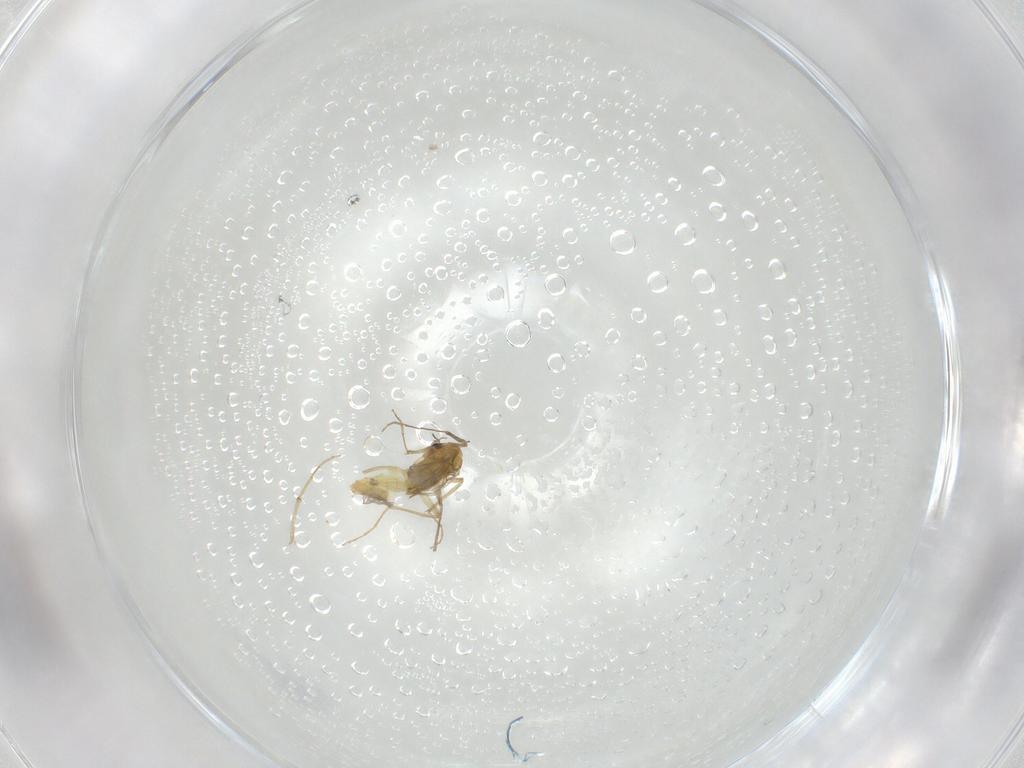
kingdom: Animalia
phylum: Arthropoda
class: Insecta
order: Diptera
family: Chironomidae
